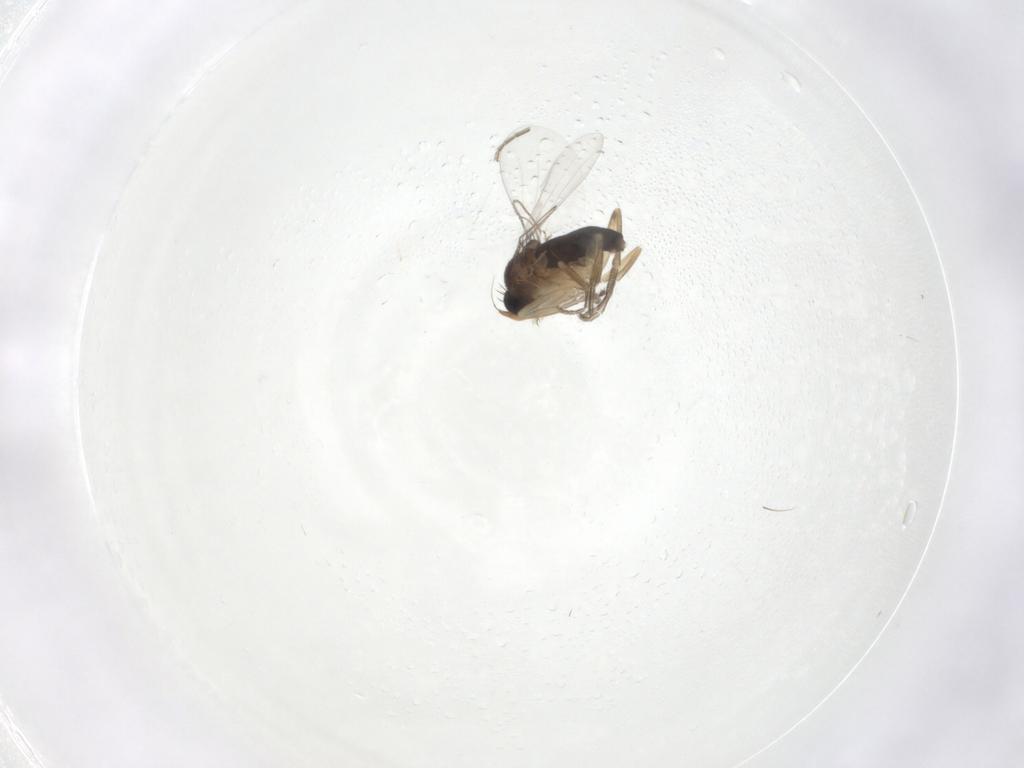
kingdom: Animalia
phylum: Arthropoda
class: Insecta
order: Diptera
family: Phoridae
